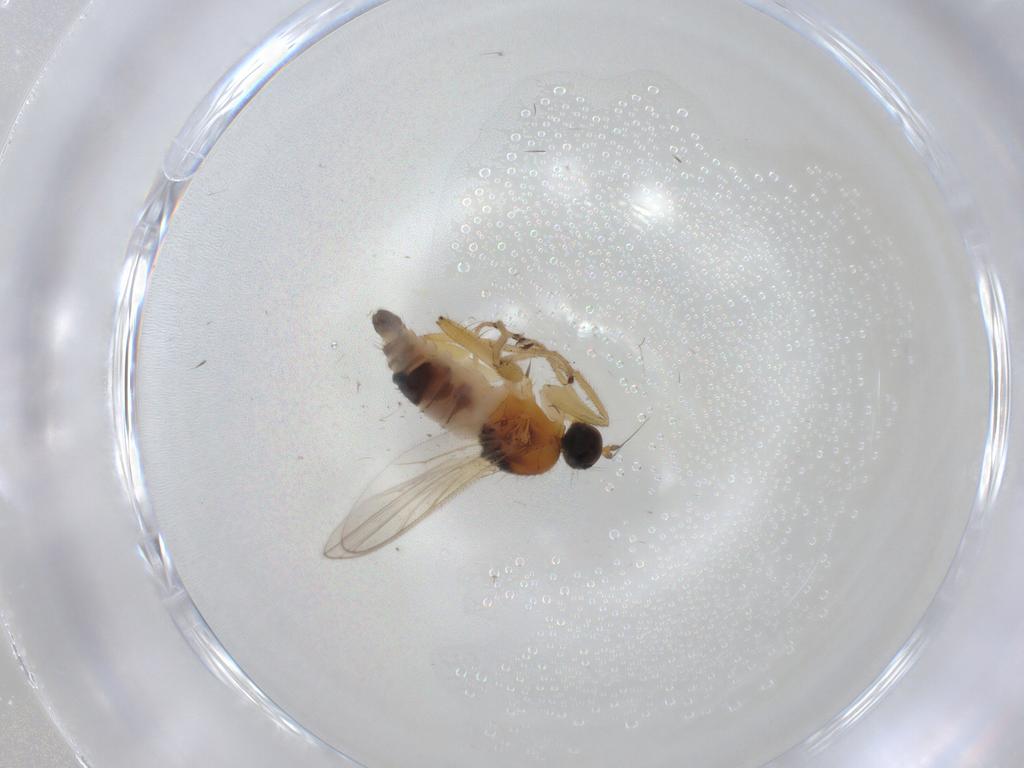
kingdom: Animalia
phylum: Arthropoda
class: Insecta
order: Diptera
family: Hybotidae
